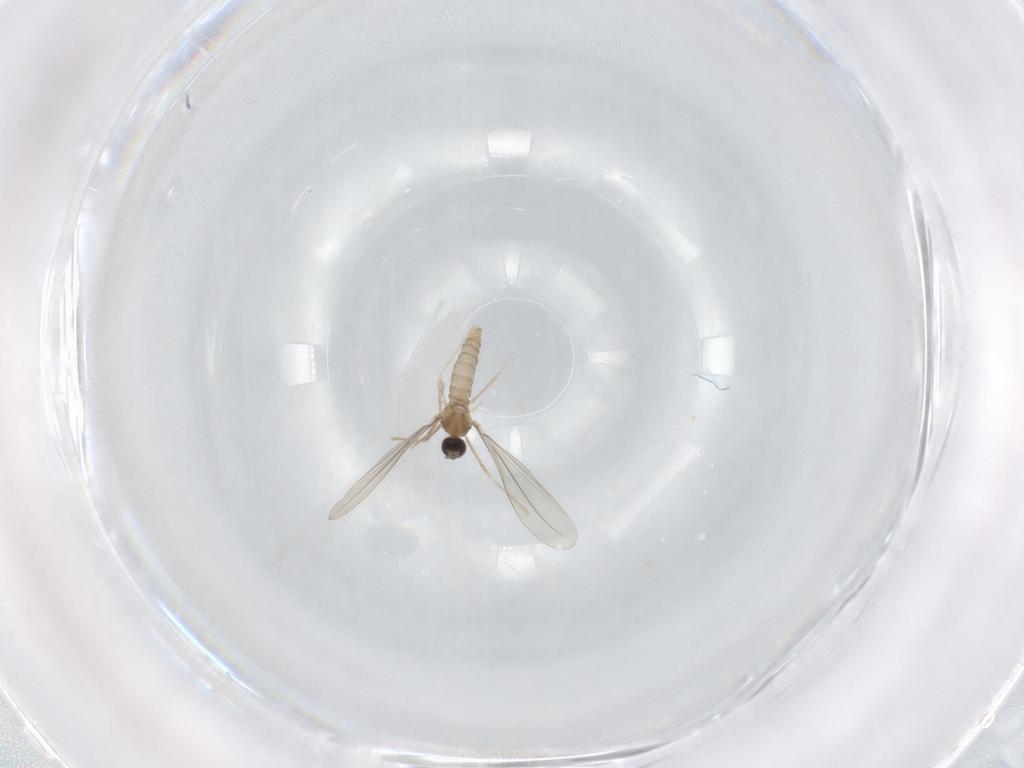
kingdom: Animalia
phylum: Arthropoda
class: Insecta
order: Diptera
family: Cecidomyiidae
